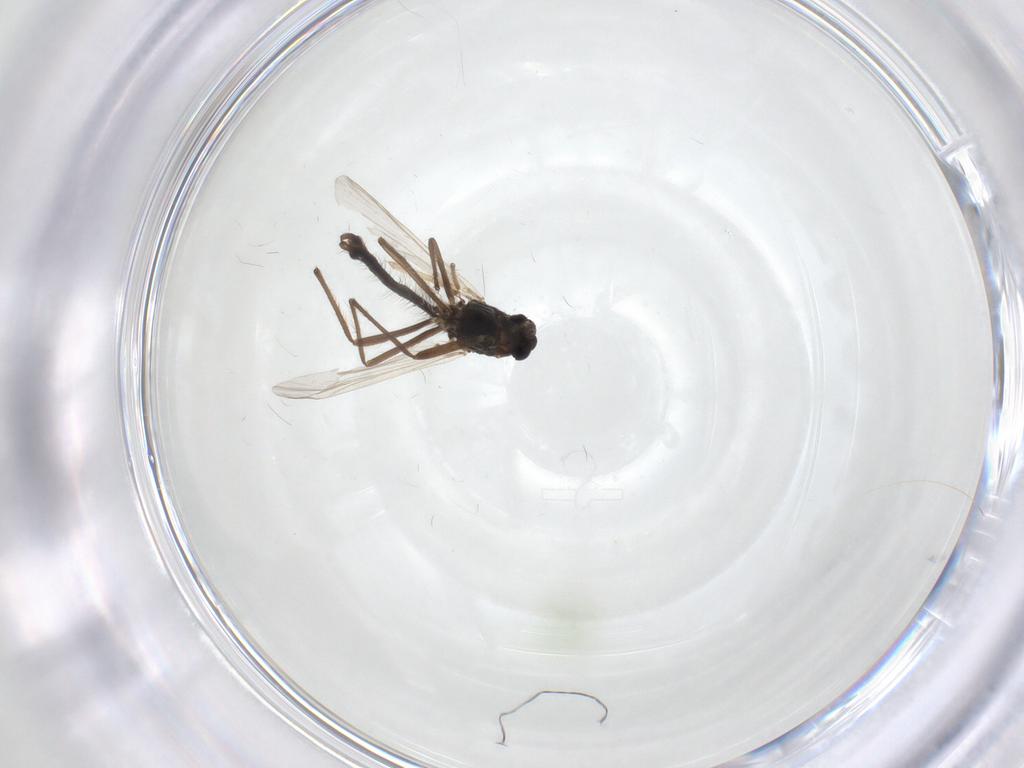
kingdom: Animalia
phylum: Arthropoda
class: Insecta
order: Diptera
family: Chironomidae
